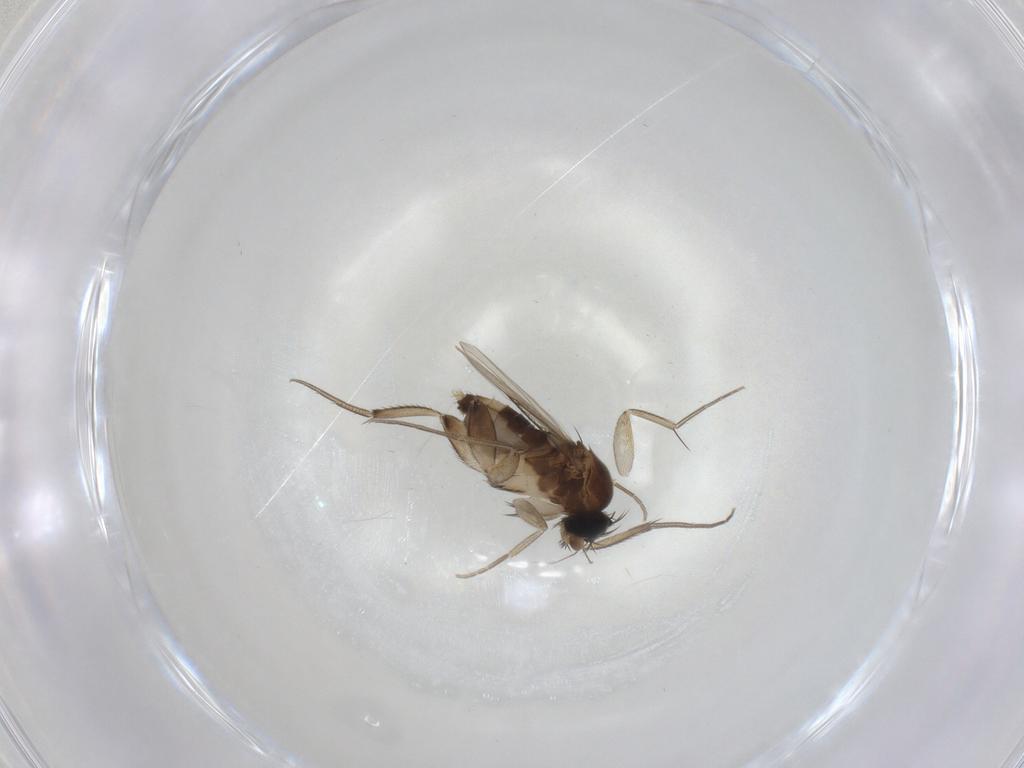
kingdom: Animalia
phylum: Arthropoda
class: Insecta
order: Diptera
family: Phoridae
